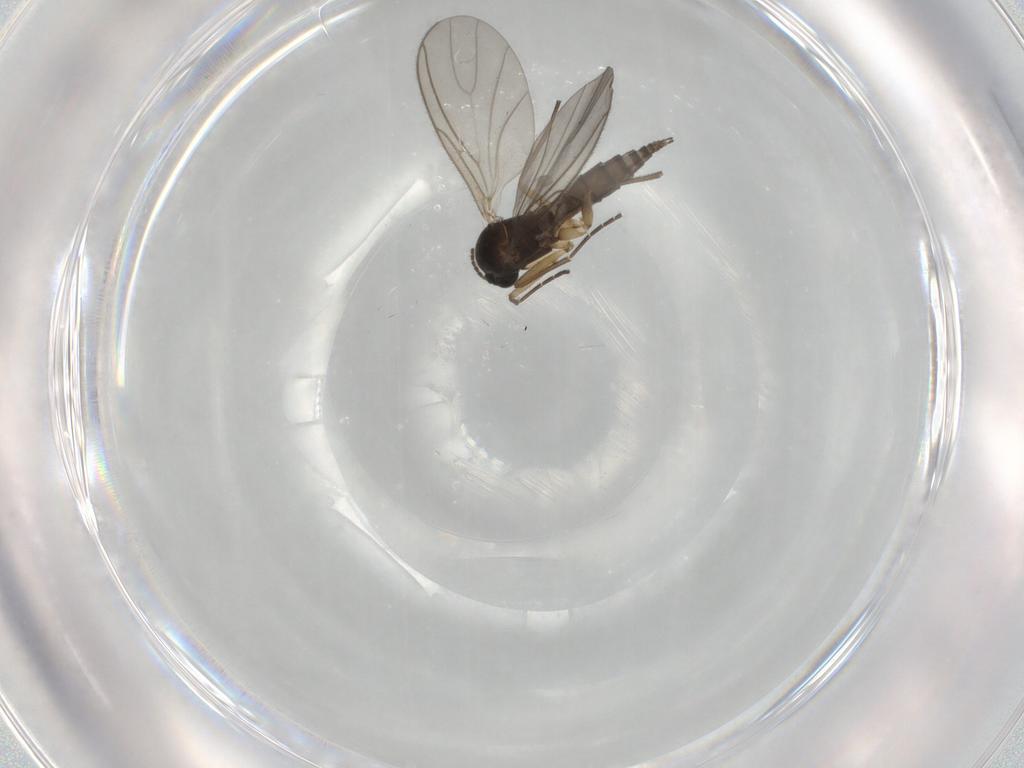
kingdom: Animalia
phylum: Arthropoda
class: Insecta
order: Diptera
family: Sciaridae
